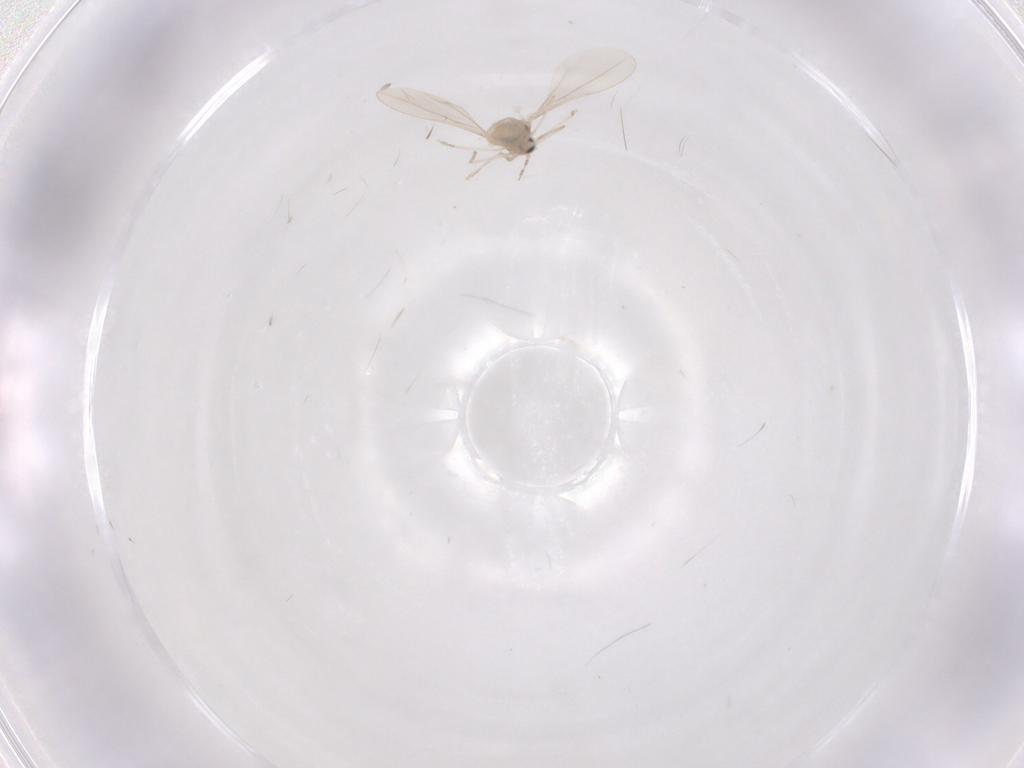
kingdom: Animalia
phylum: Arthropoda
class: Insecta
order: Diptera
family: Cecidomyiidae
